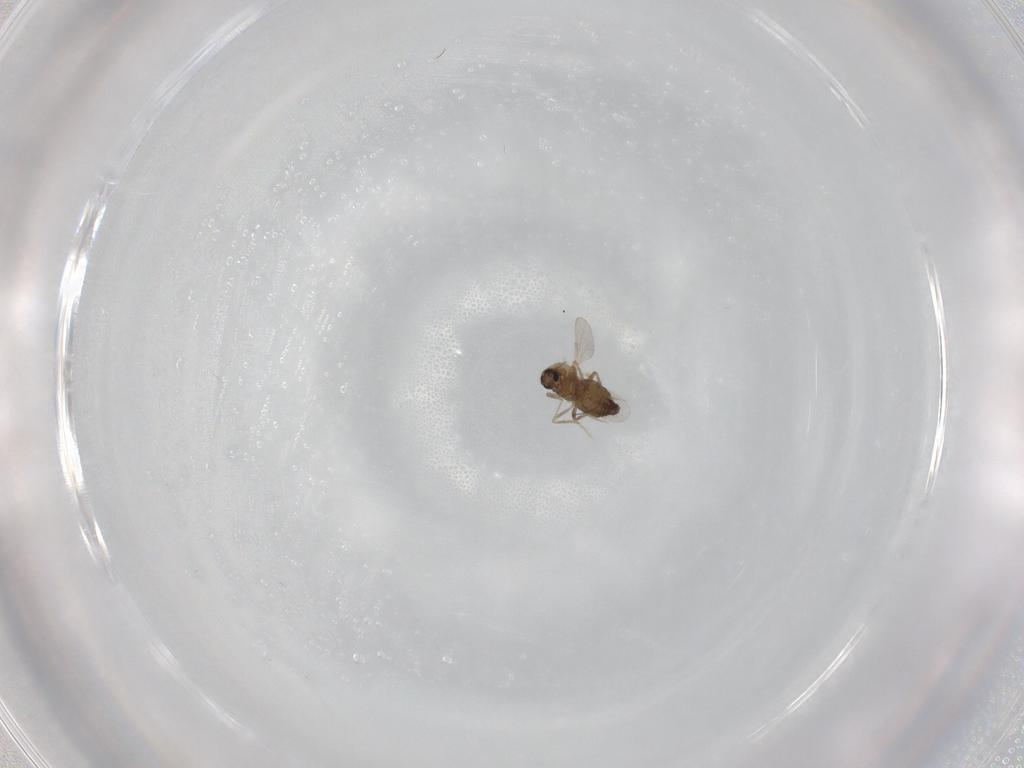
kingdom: Animalia
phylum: Arthropoda
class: Insecta
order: Diptera
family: Ceratopogonidae
